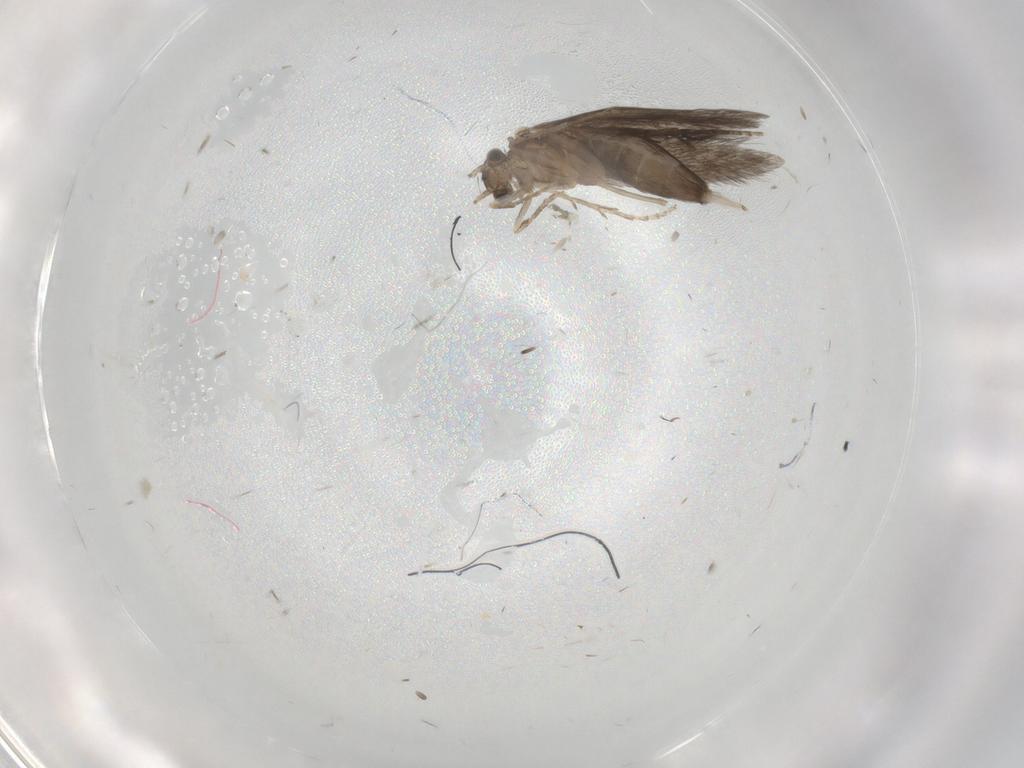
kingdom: Animalia
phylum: Arthropoda
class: Insecta
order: Trichoptera
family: Hydroptilidae
